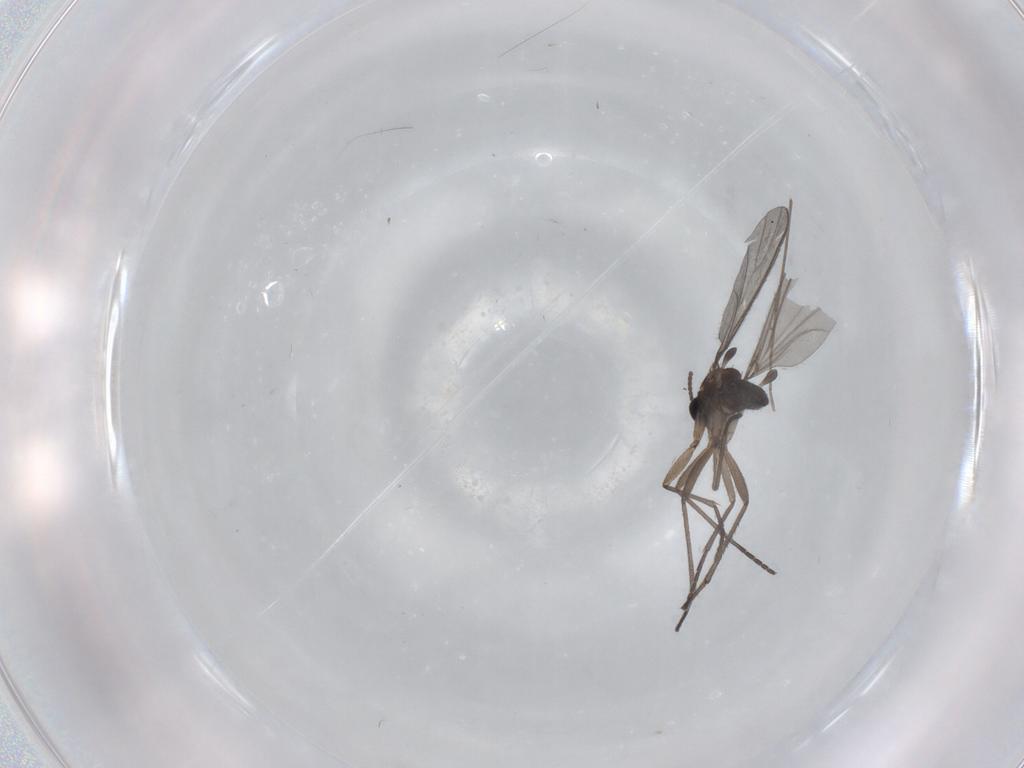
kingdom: Animalia
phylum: Arthropoda
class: Insecta
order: Diptera
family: Sciaridae
